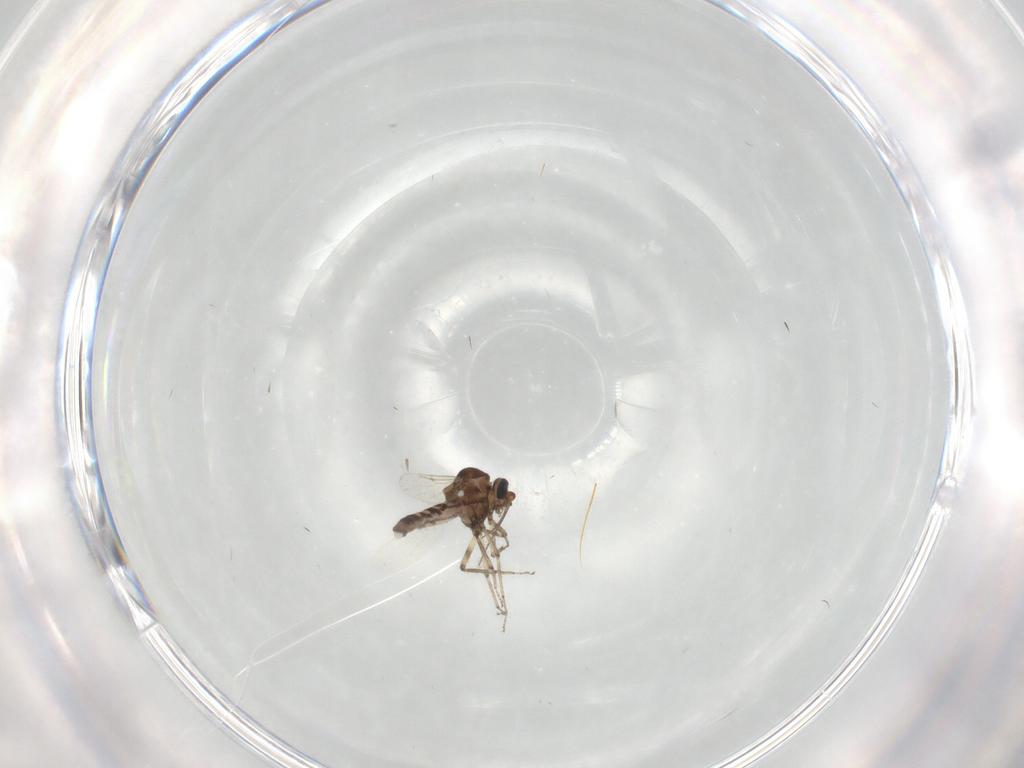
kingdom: Animalia
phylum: Arthropoda
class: Insecta
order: Diptera
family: Ceratopogonidae
